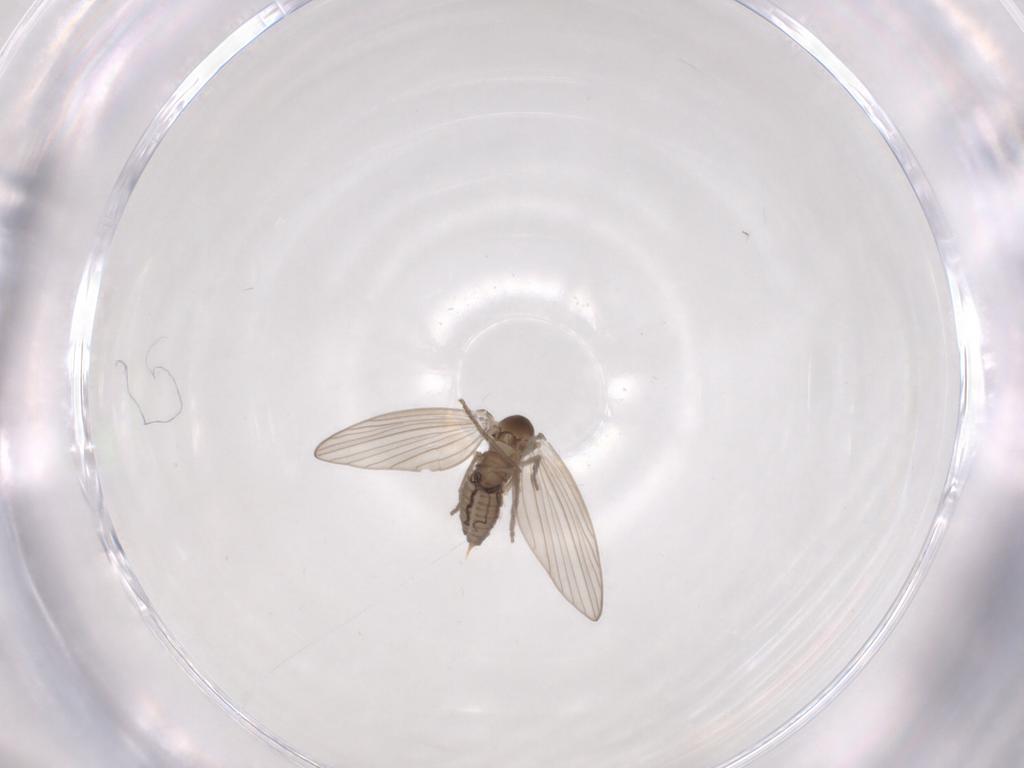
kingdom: Animalia
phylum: Arthropoda
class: Insecta
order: Diptera
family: Psychodidae
